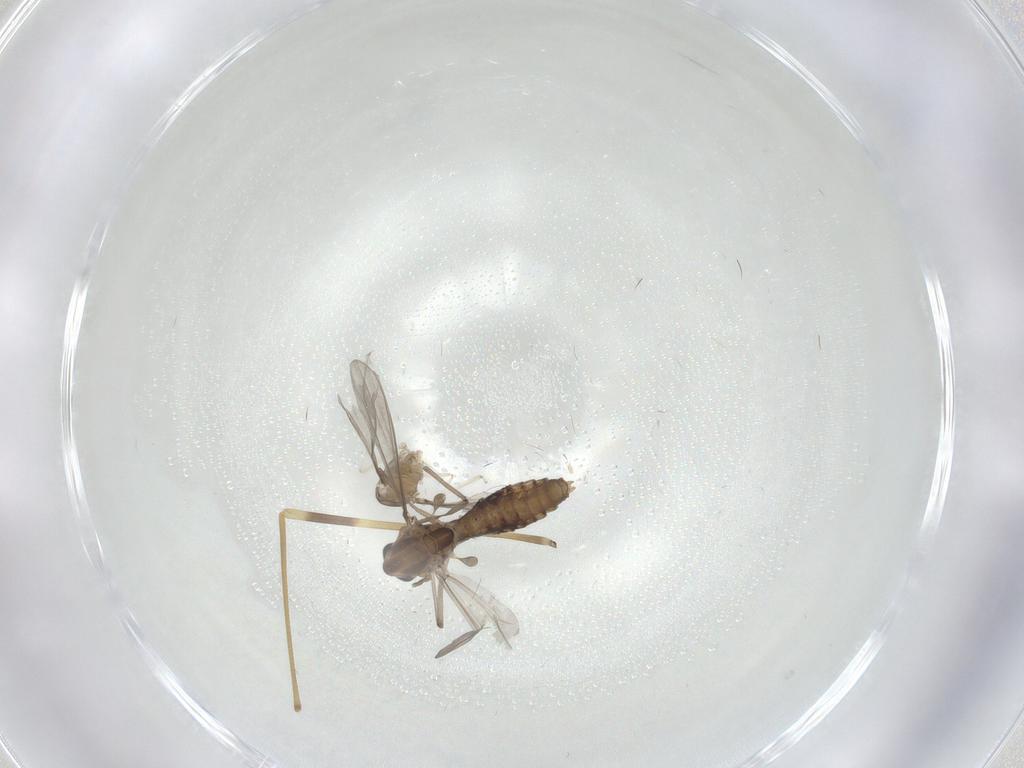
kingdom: Animalia
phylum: Arthropoda
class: Insecta
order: Diptera
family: Cecidomyiidae
